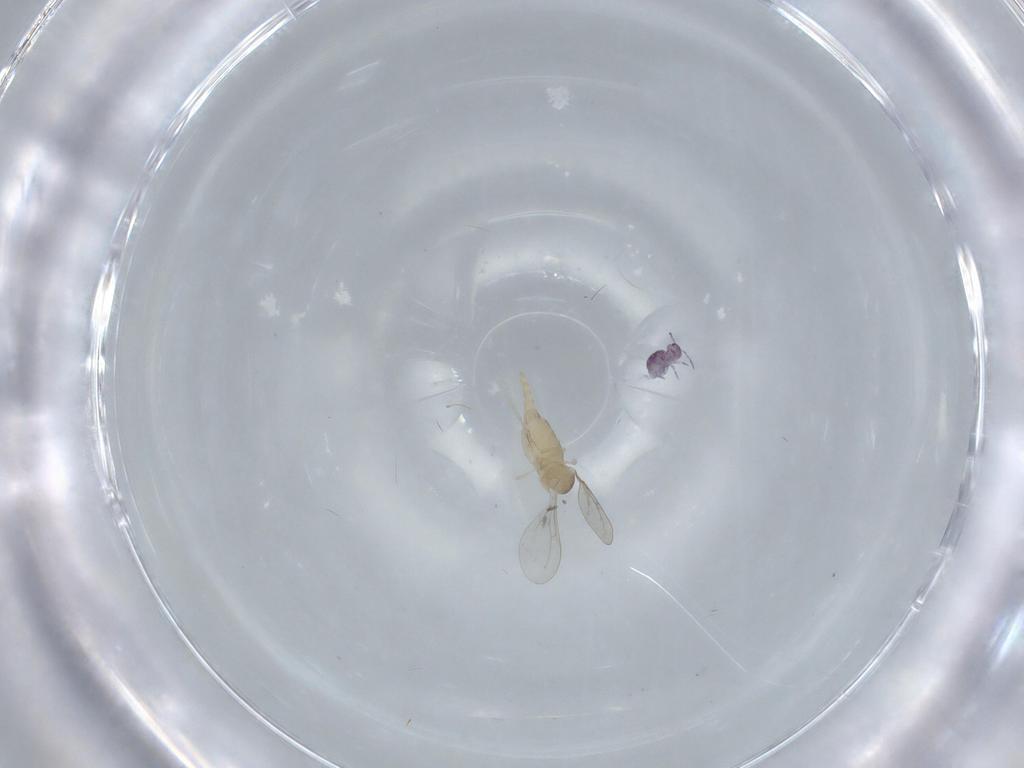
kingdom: Animalia
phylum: Arthropoda
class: Insecta
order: Diptera
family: Cecidomyiidae
